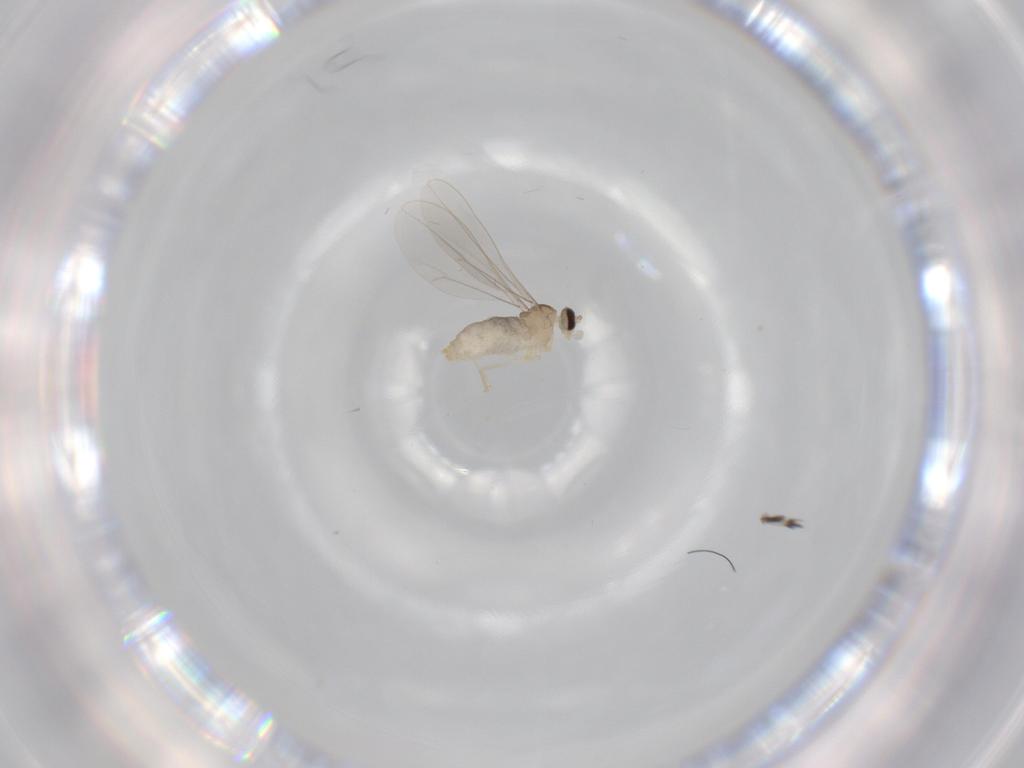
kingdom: Animalia
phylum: Arthropoda
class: Insecta
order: Diptera
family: Cecidomyiidae
